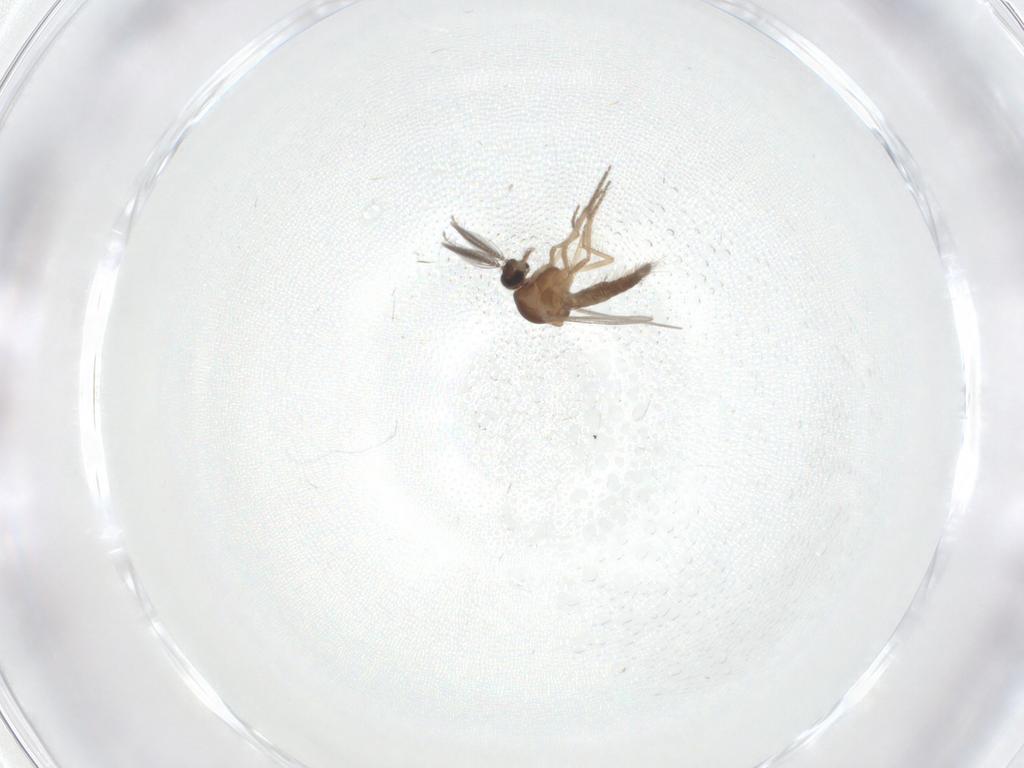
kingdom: Animalia
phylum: Arthropoda
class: Insecta
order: Diptera
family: Ceratopogonidae
